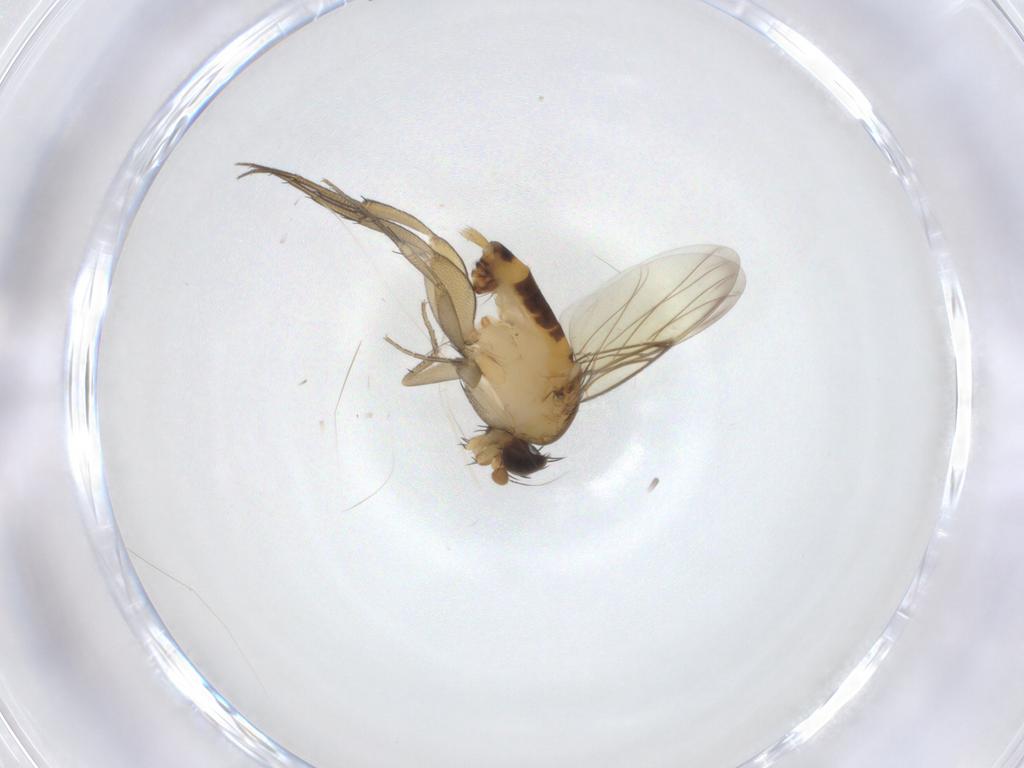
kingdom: Animalia
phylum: Arthropoda
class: Insecta
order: Diptera
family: Phoridae
